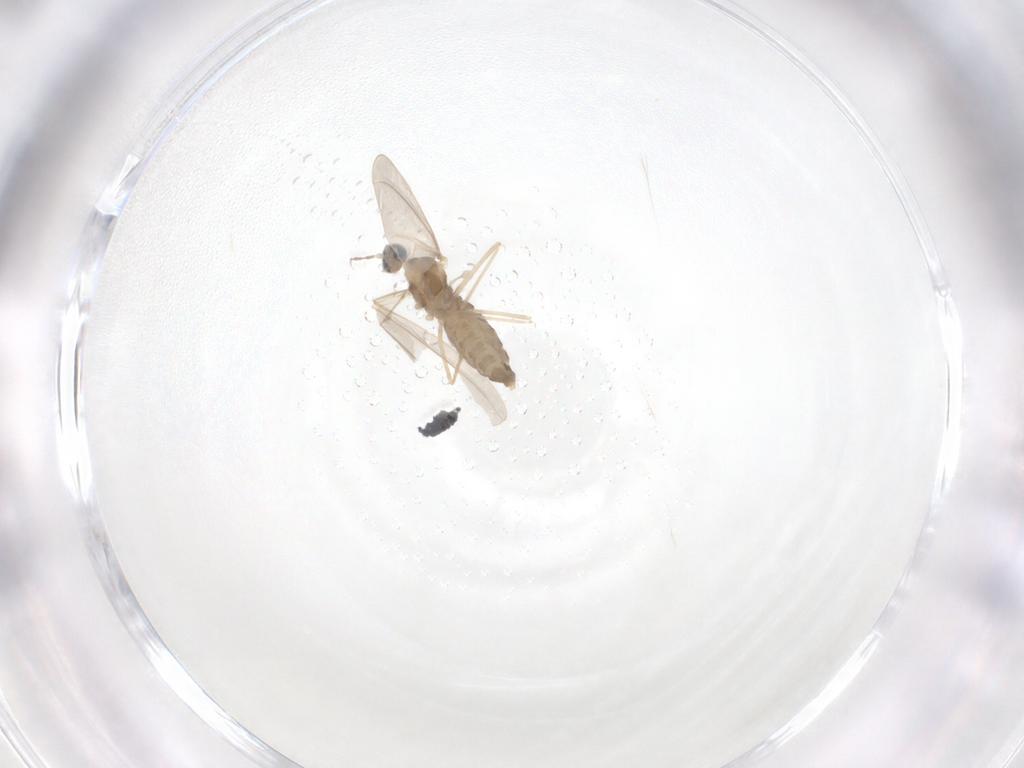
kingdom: Animalia
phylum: Arthropoda
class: Insecta
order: Diptera
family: Cecidomyiidae
